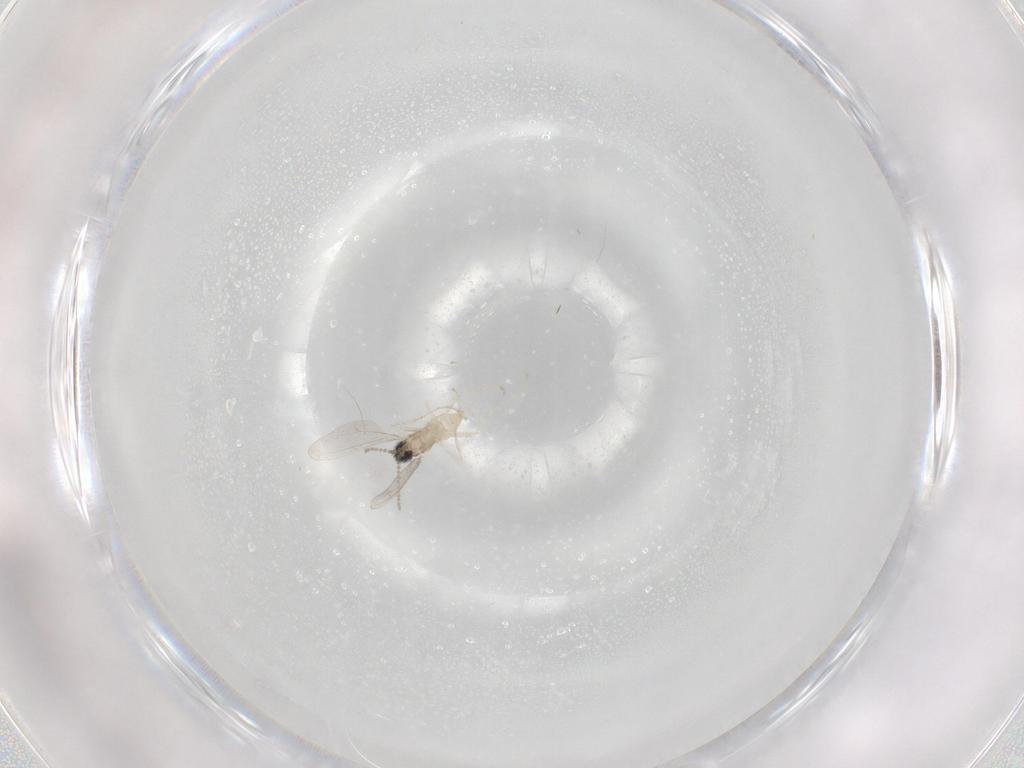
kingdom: Animalia
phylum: Arthropoda
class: Insecta
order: Diptera
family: Cecidomyiidae
